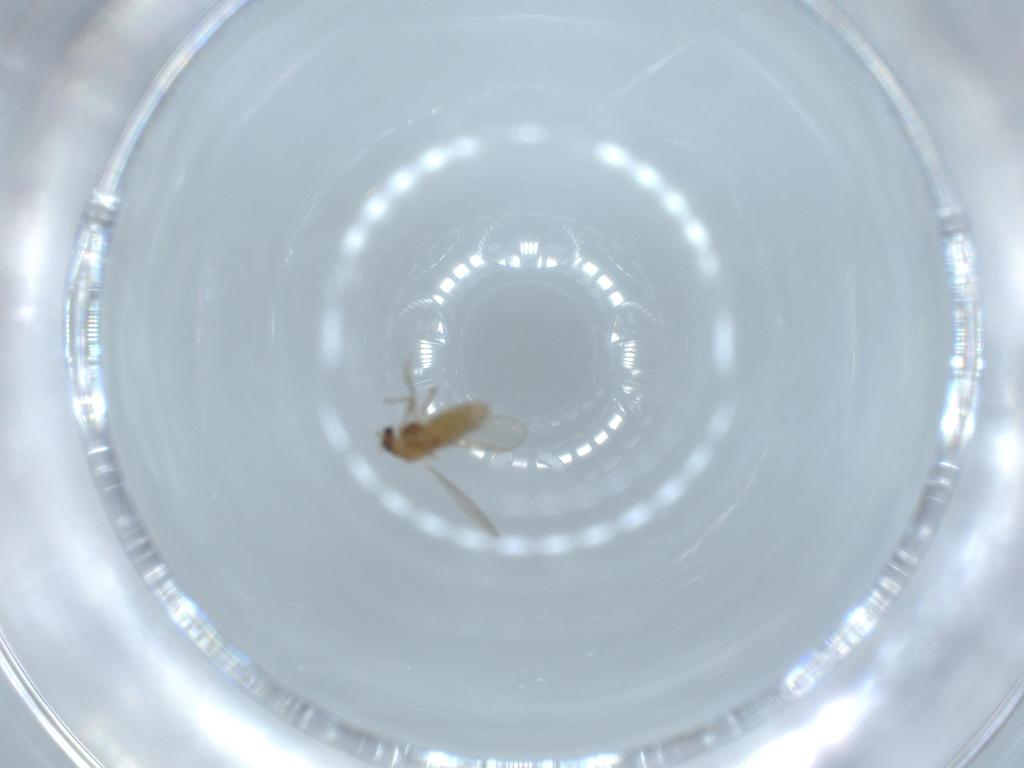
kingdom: Animalia
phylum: Arthropoda
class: Insecta
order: Diptera
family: Chironomidae
